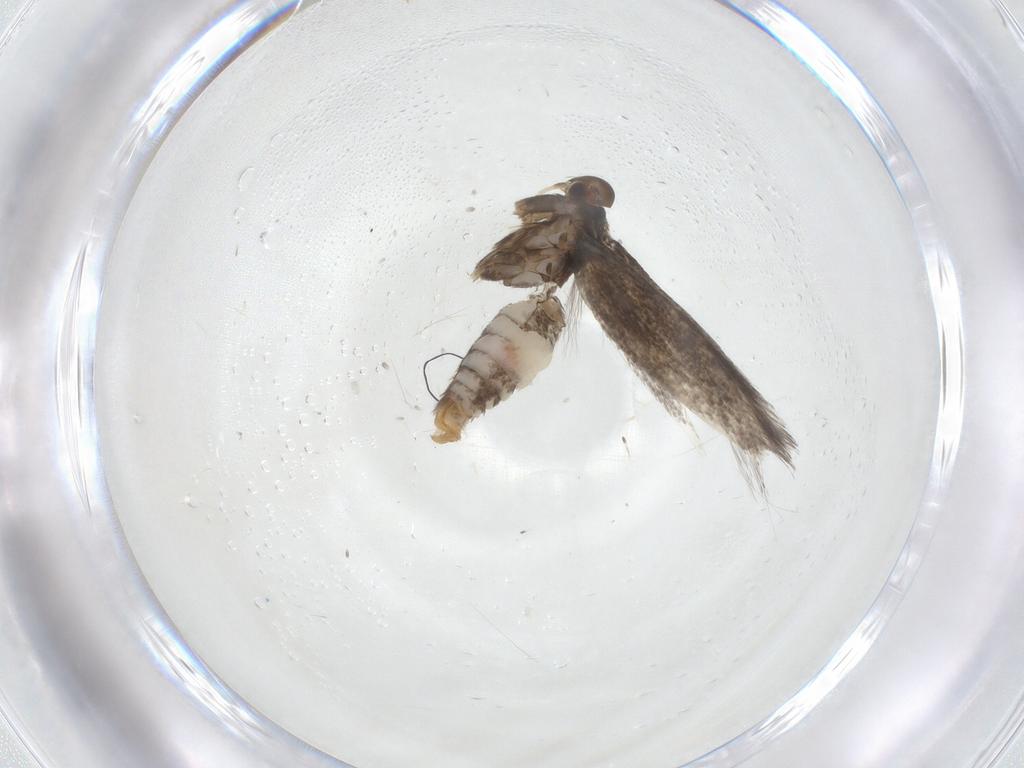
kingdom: Animalia
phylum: Arthropoda
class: Insecta
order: Lepidoptera
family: Elachistidae
